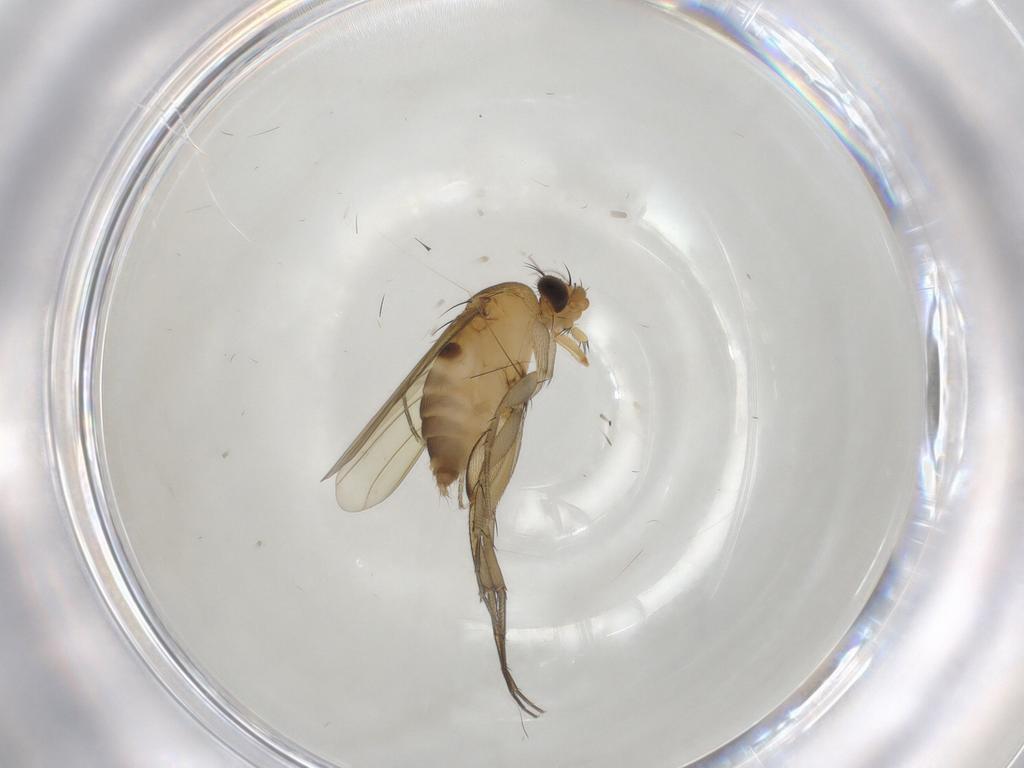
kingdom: Animalia
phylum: Arthropoda
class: Insecta
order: Diptera
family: Phoridae
